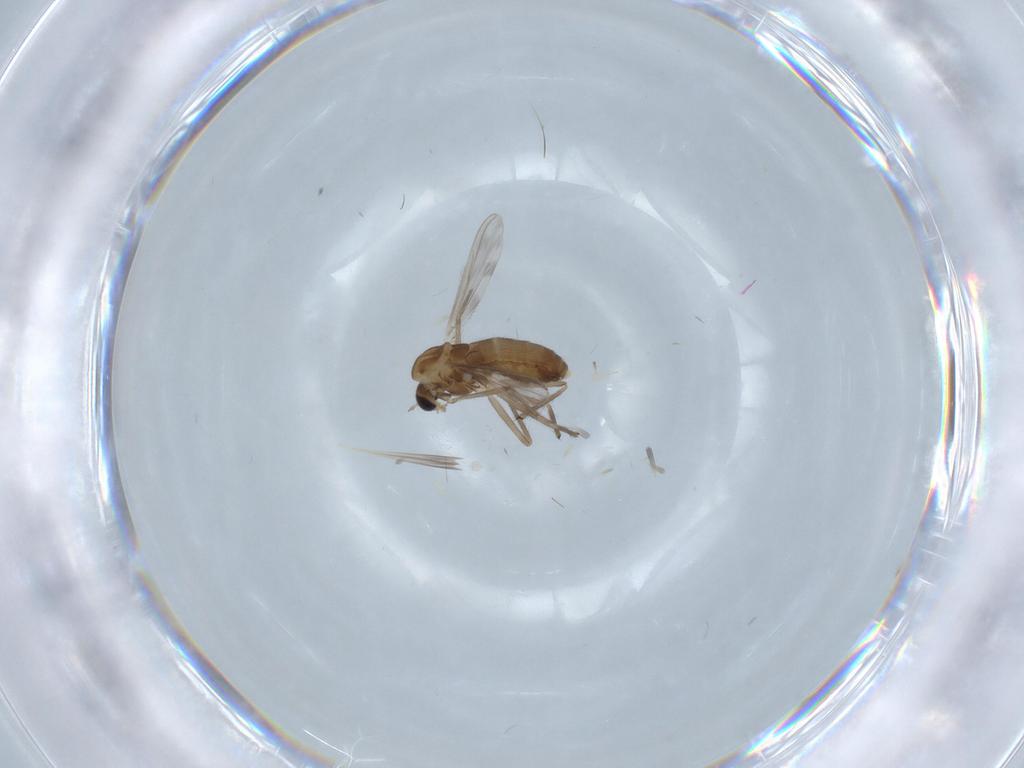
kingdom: Animalia
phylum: Arthropoda
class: Insecta
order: Diptera
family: Chironomidae
